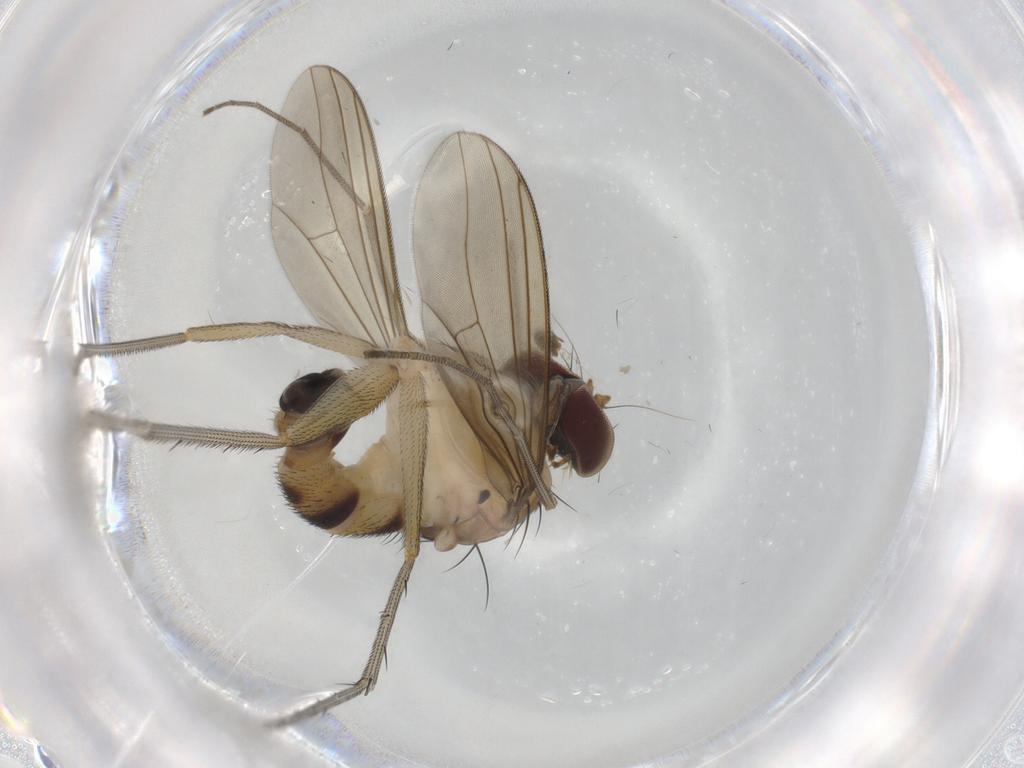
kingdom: Animalia
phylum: Arthropoda
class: Insecta
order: Diptera
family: Chironomidae
